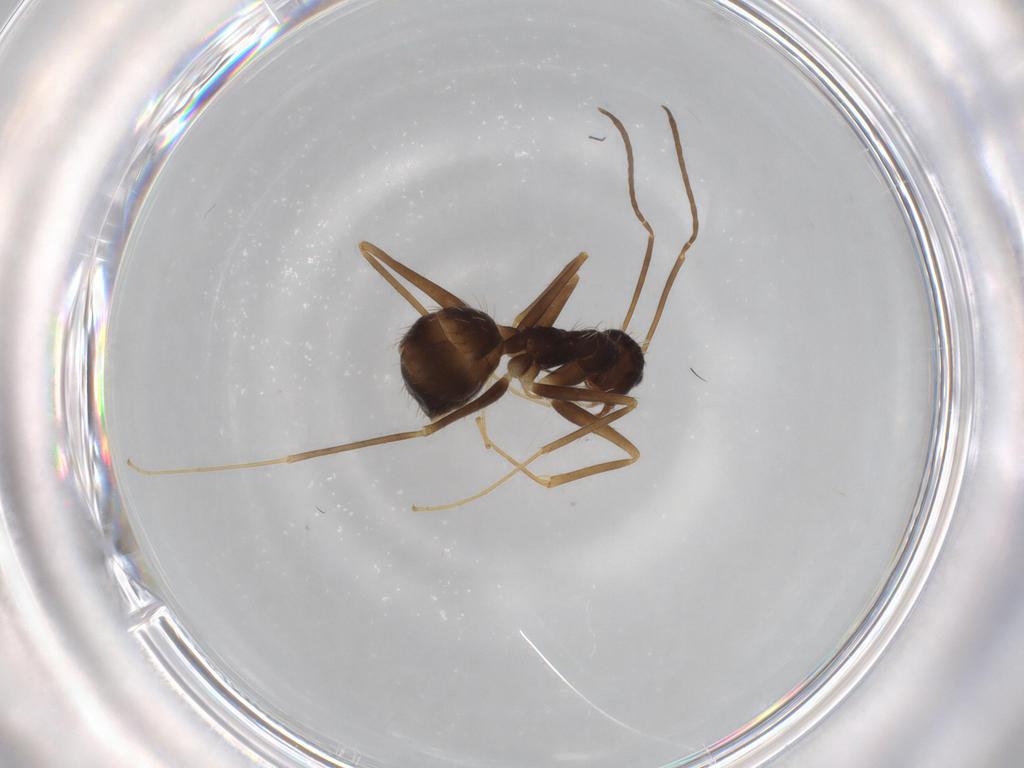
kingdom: Animalia
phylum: Arthropoda
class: Insecta
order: Hymenoptera
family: Formicidae
